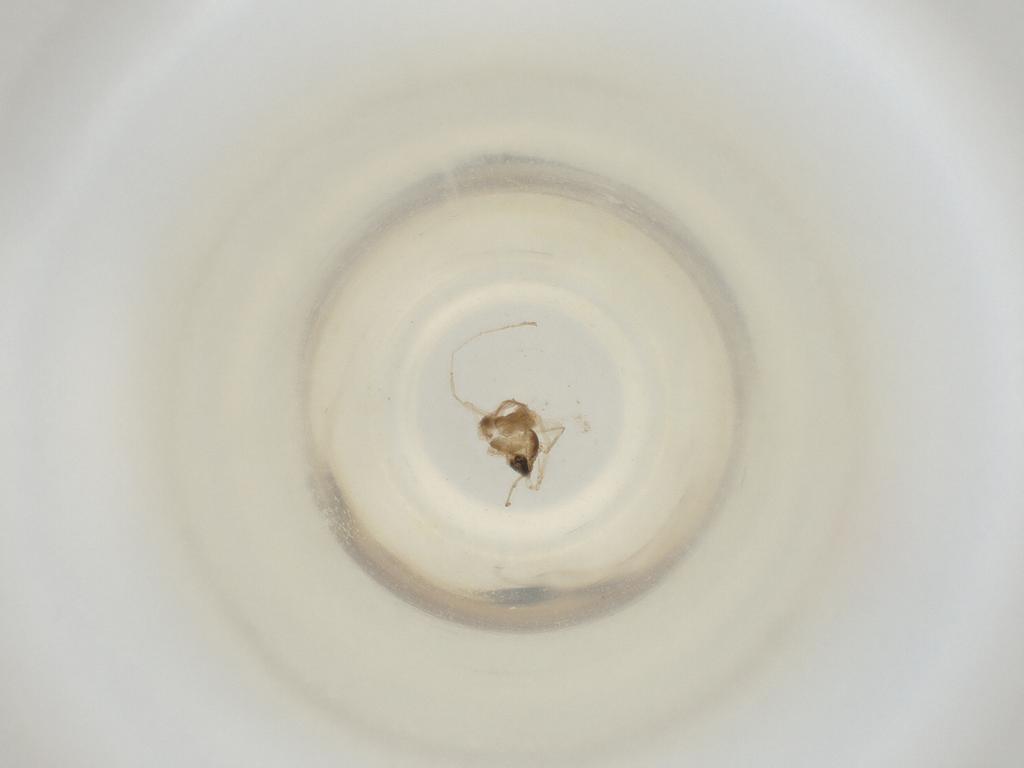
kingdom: Animalia
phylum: Arthropoda
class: Insecta
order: Diptera
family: Cecidomyiidae
